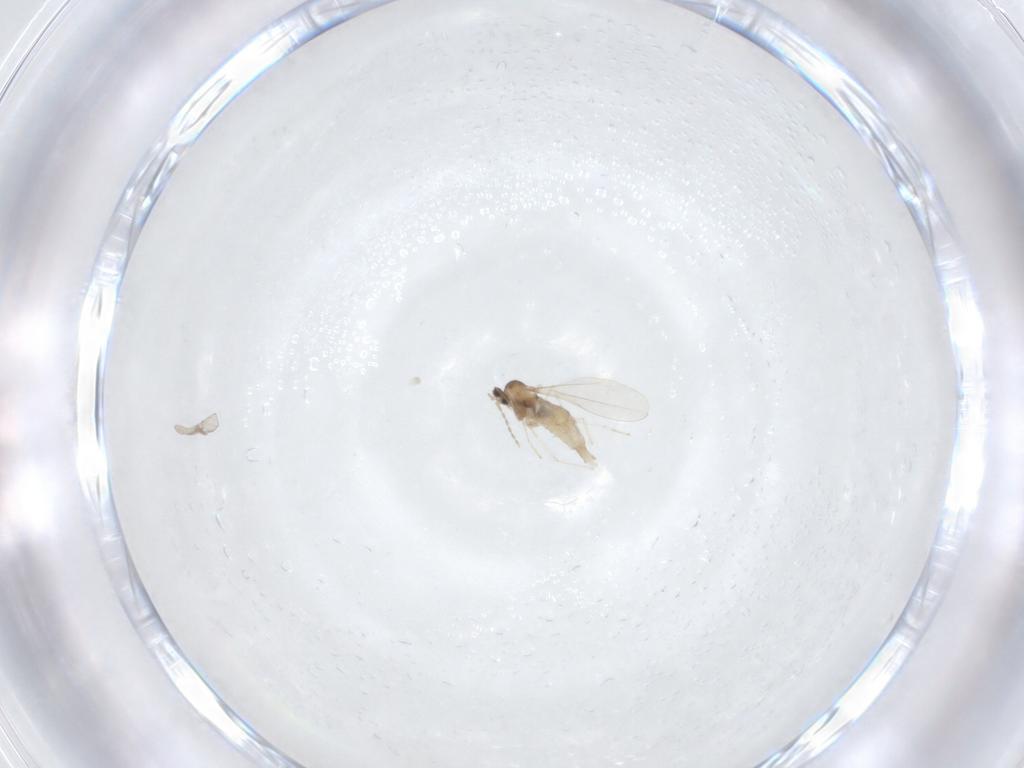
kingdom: Animalia
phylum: Arthropoda
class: Insecta
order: Diptera
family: Cecidomyiidae
